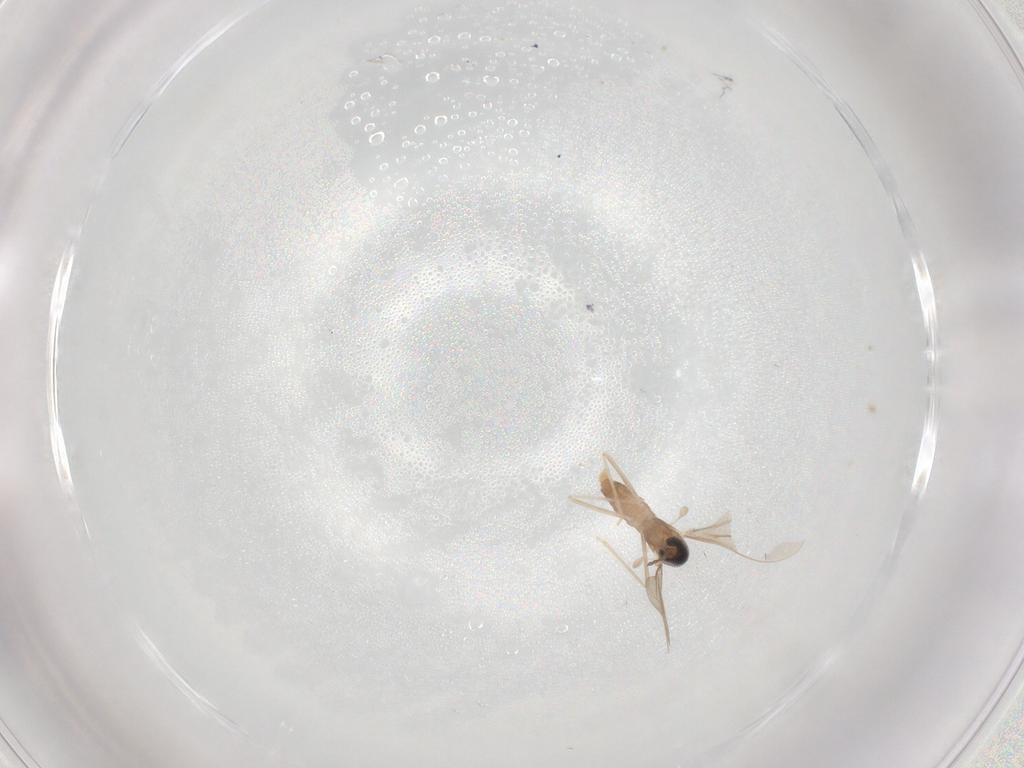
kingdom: Animalia
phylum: Arthropoda
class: Insecta
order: Diptera
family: Cecidomyiidae
